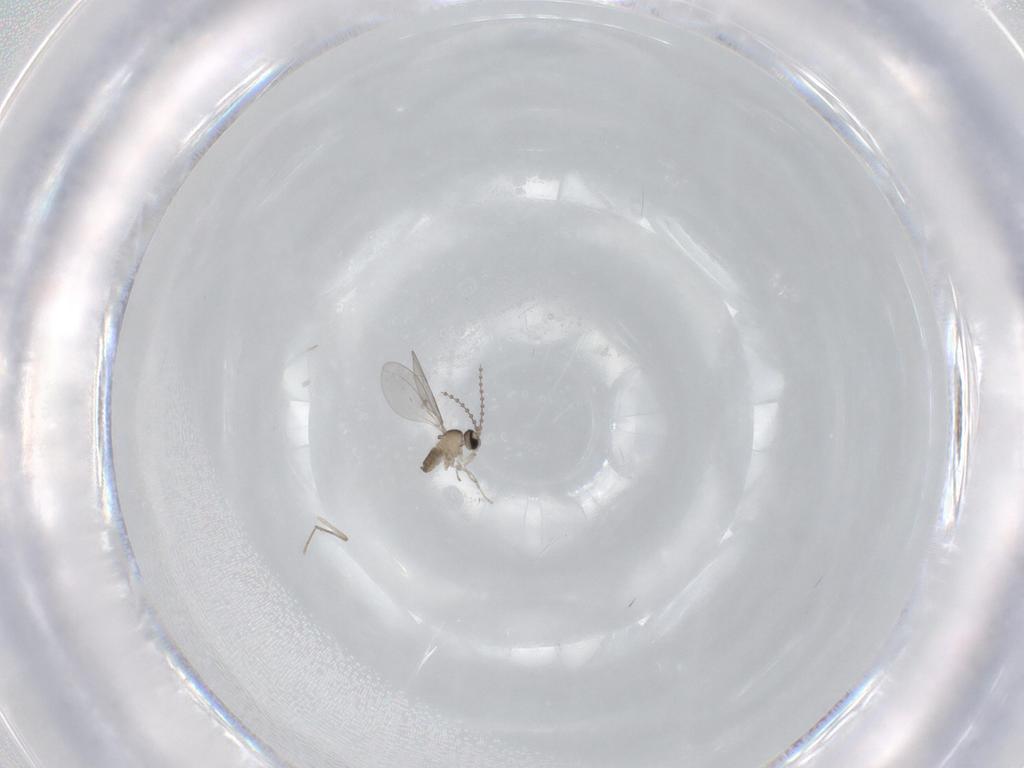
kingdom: Animalia
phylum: Arthropoda
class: Insecta
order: Diptera
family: Cecidomyiidae
